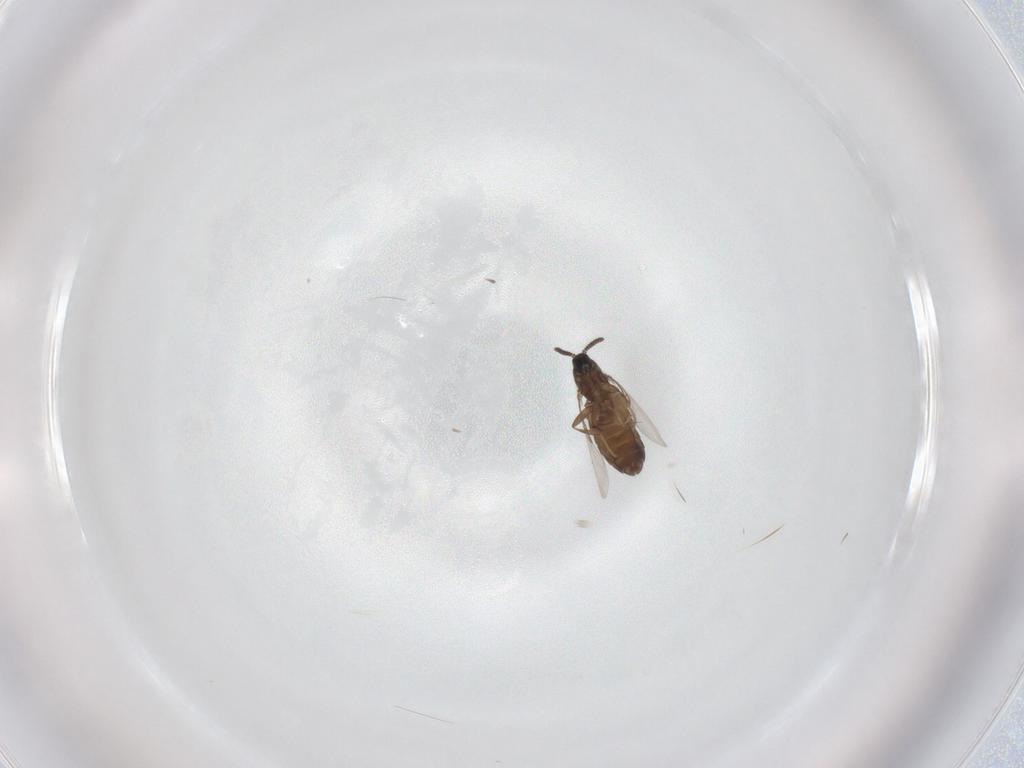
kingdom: Animalia
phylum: Arthropoda
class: Insecta
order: Diptera
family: Scatopsidae
